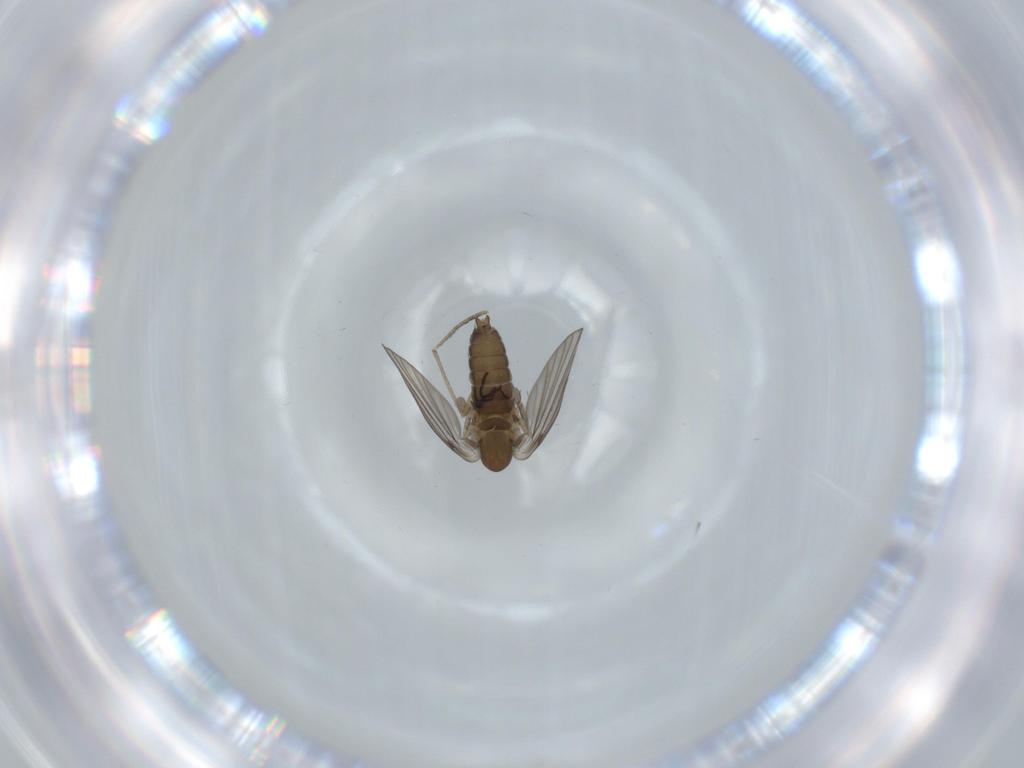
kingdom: Animalia
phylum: Arthropoda
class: Insecta
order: Diptera
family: Psychodidae
